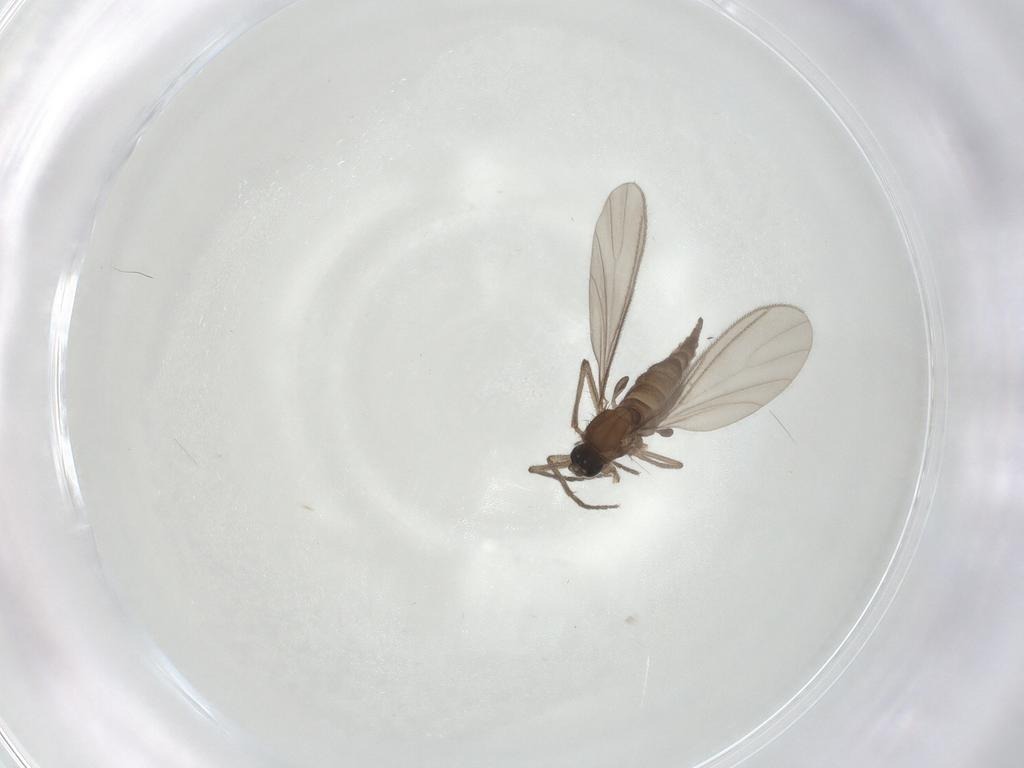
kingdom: Animalia
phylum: Arthropoda
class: Insecta
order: Diptera
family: Sciaridae
